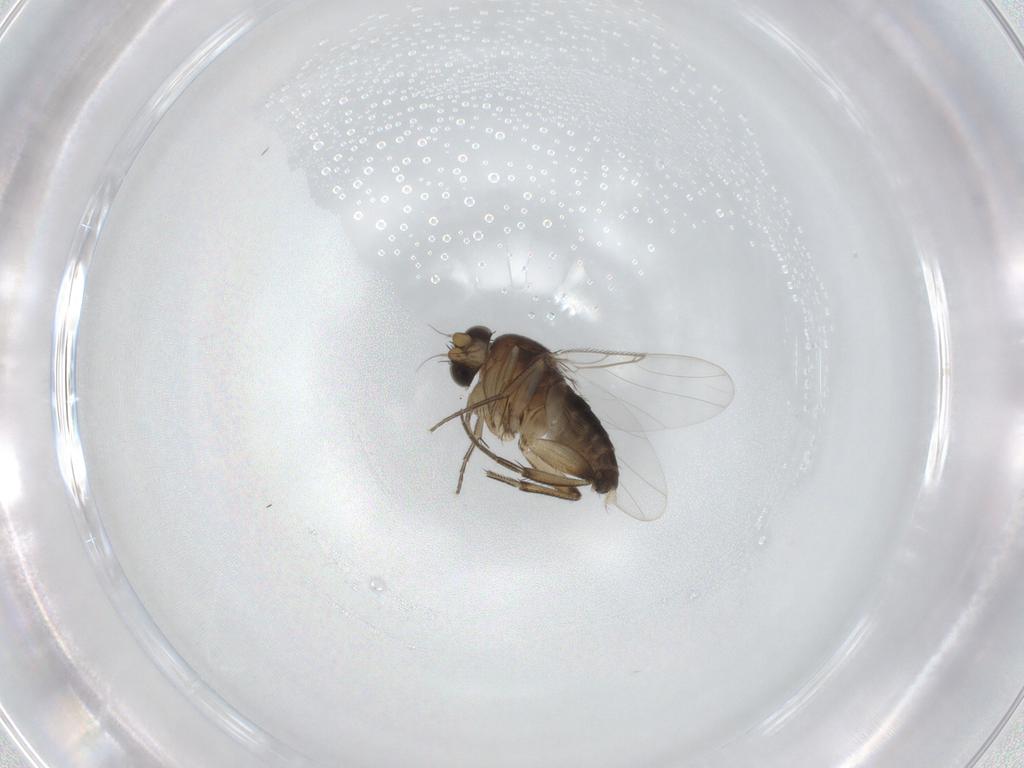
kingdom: Animalia
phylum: Arthropoda
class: Insecta
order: Diptera
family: Phoridae
